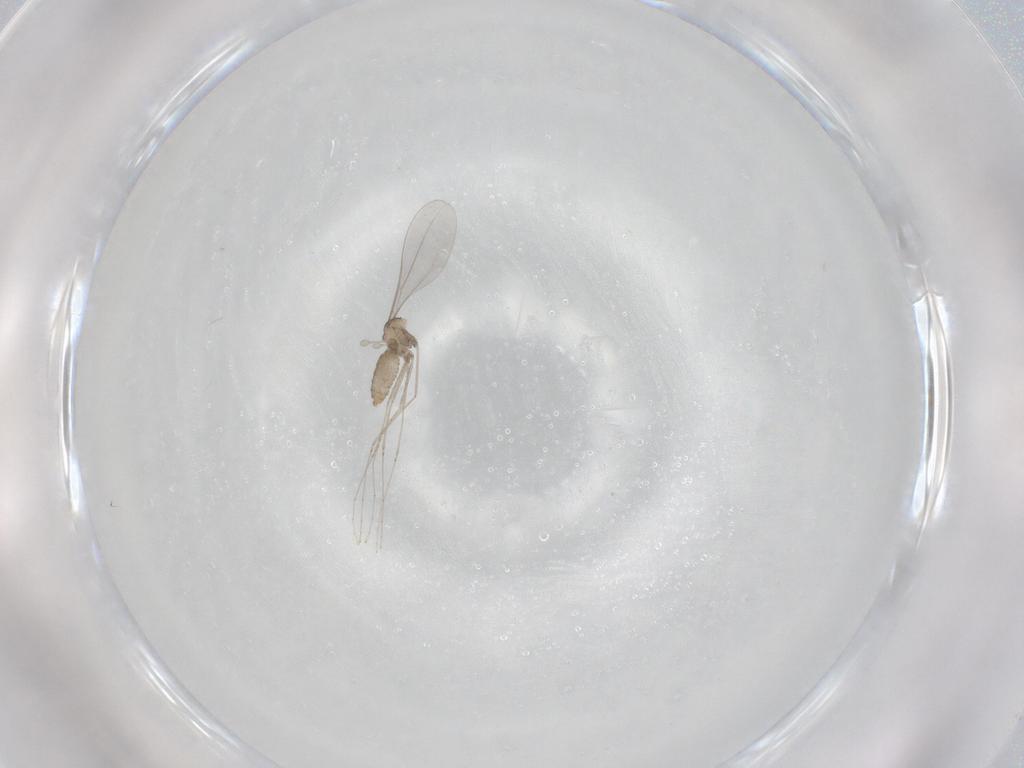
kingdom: Animalia
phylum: Arthropoda
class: Insecta
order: Diptera
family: Cecidomyiidae
